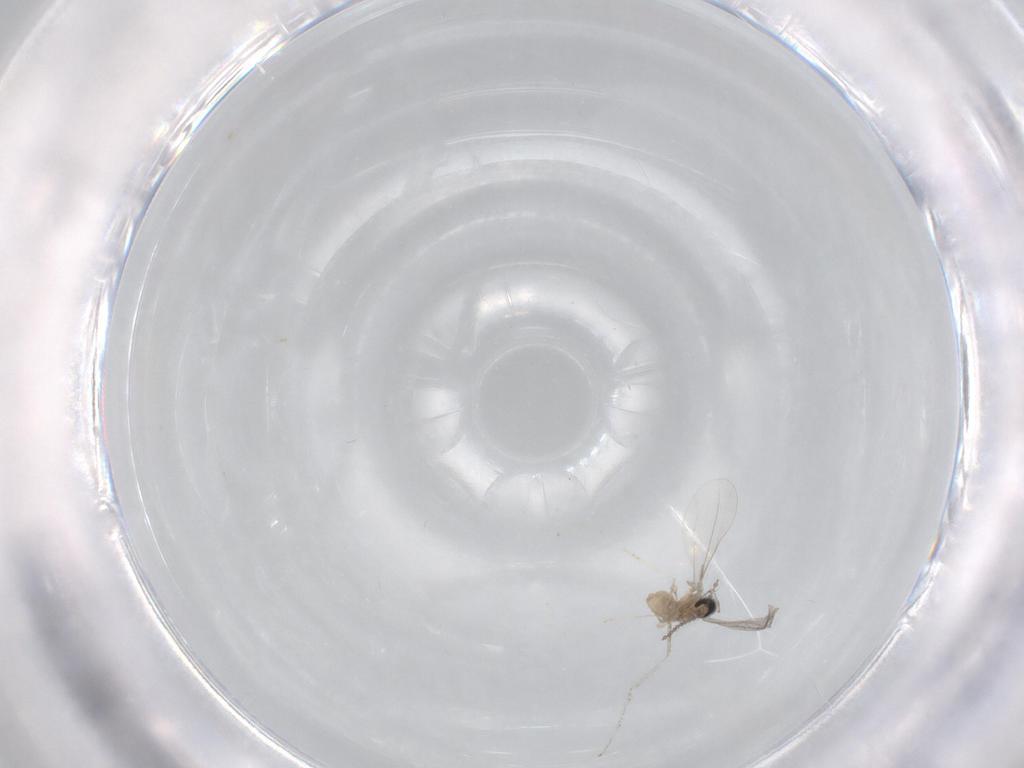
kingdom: Animalia
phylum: Arthropoda
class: Insecta
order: Diptera
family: Cecidomyiidae
